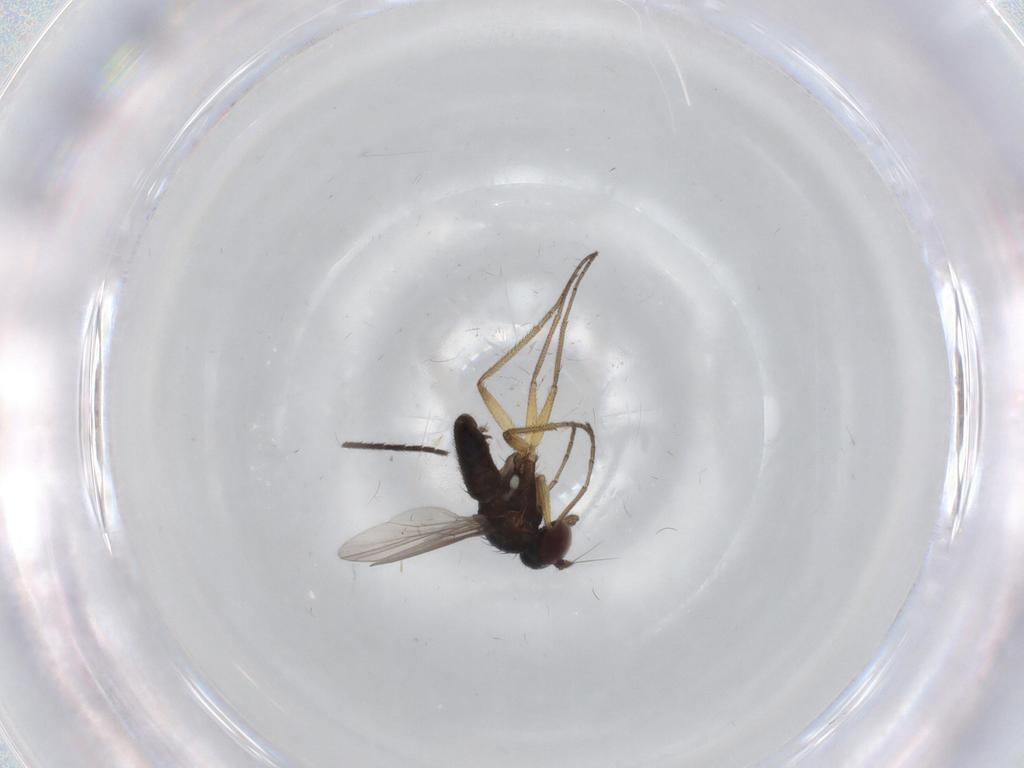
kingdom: Animalia
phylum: Arthropoda
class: Insecta
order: Diptera
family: Dolichopodidae
